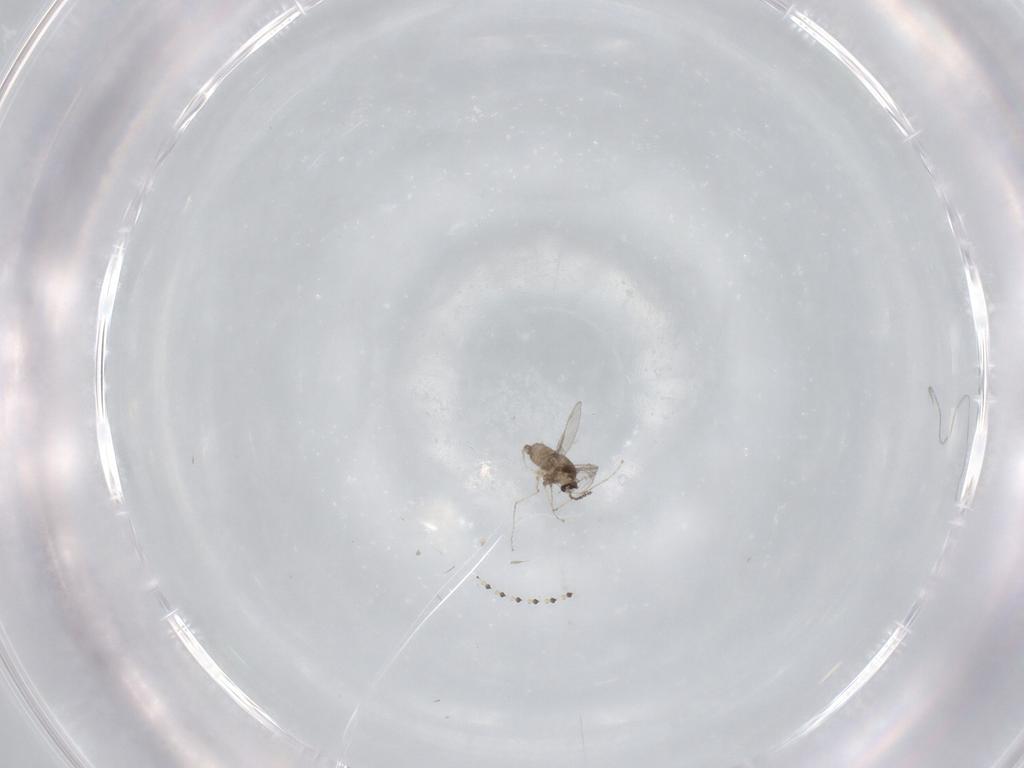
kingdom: Animalia
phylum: Arthropoda
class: Insecta
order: Diptera
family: Cecidomyiidae
